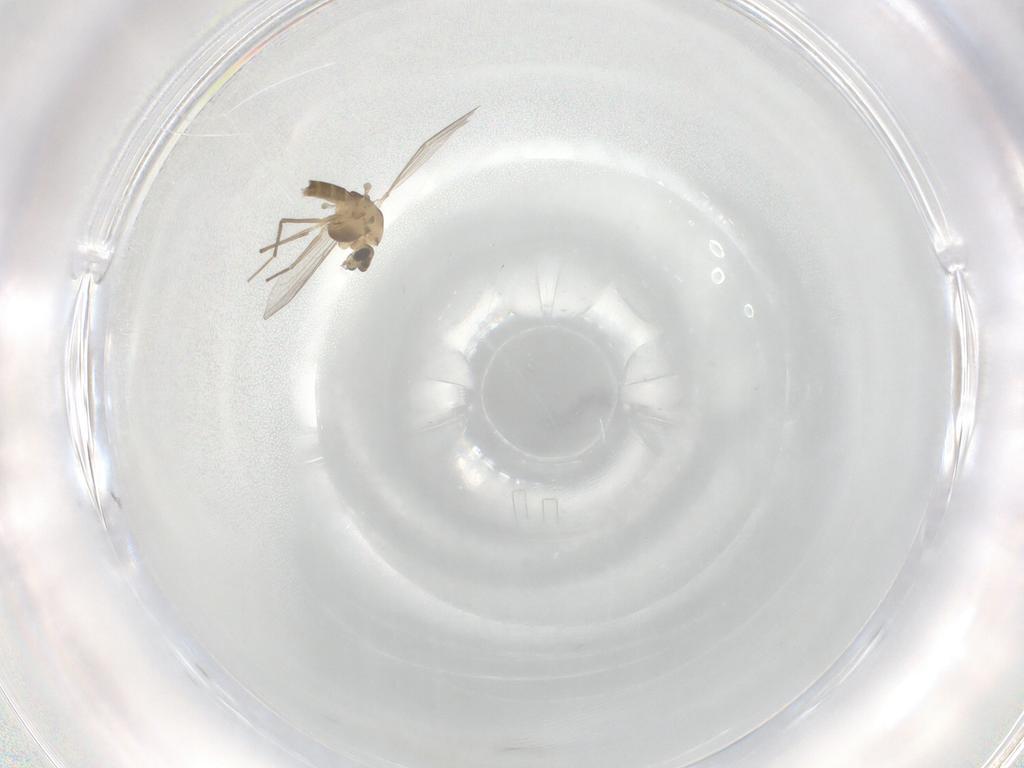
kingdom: Animalia
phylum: Arthropoda
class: Insecta
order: Diptera
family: Chironomidae
